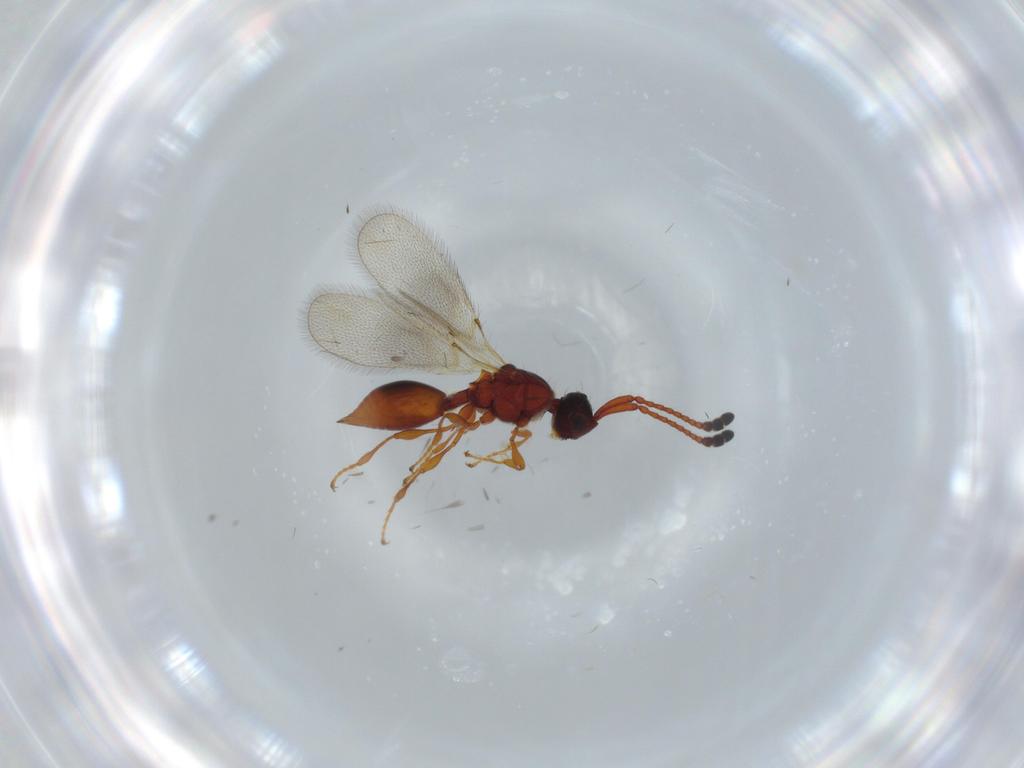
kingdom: Animalia
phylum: Arthropoda
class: Insecta
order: Hymenoptera
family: Diapriidae
